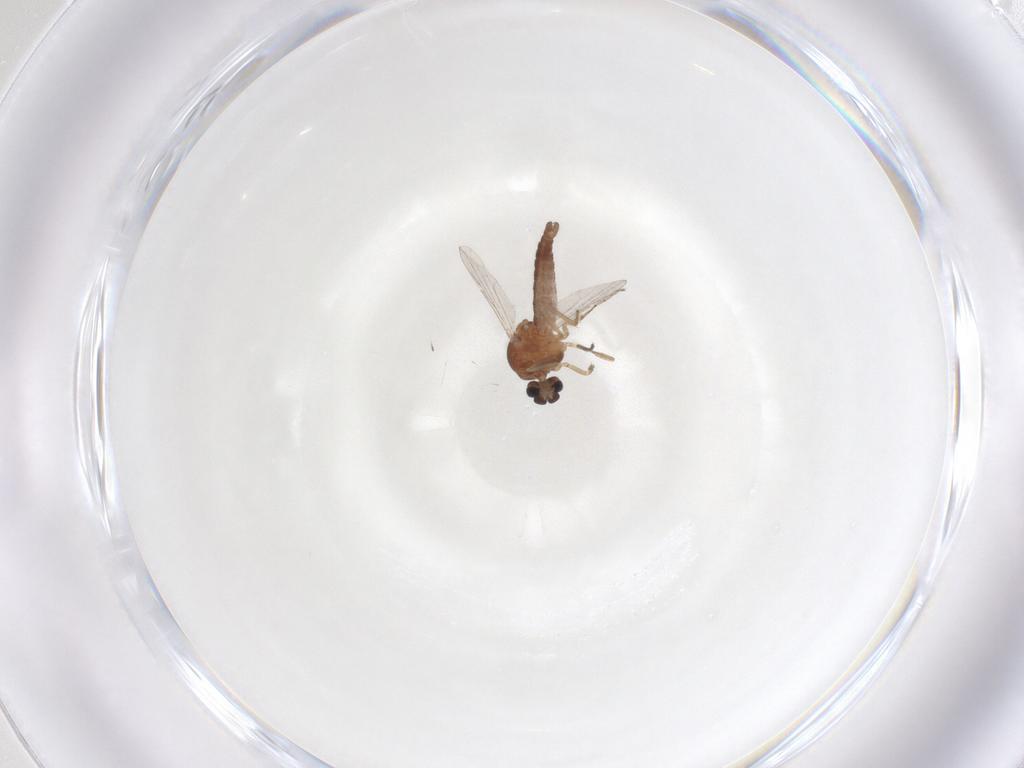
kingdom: Animalia
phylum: Arthropoda
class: Insecta
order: Diptera
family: Ceratopogonidae
